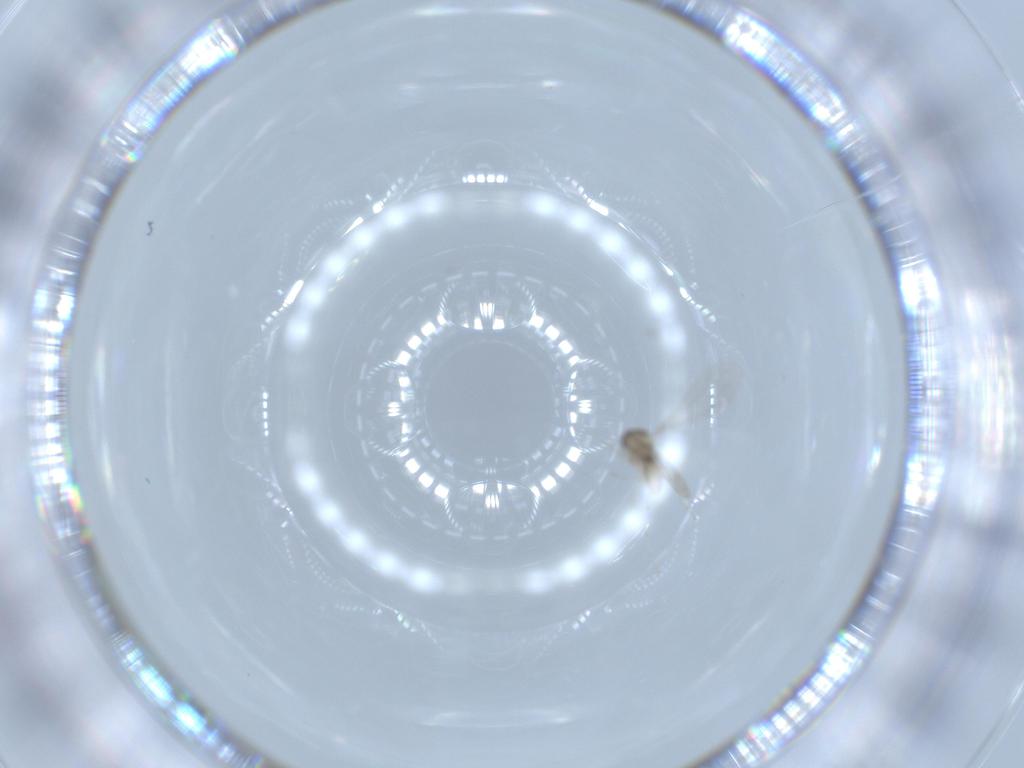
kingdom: Animalia
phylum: Arthropoda
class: Insecta
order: Diptera
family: Cecidomyiidae
